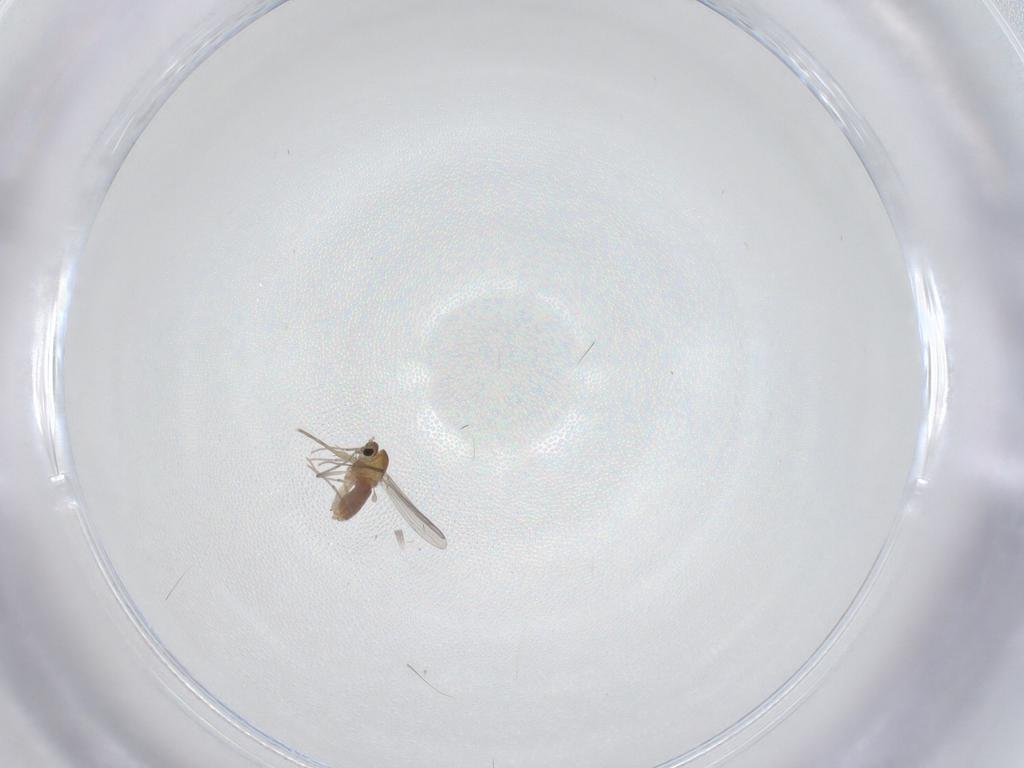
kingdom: Animalia
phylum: Arthropoda
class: Insecta
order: Diptera
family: Chironomidae
